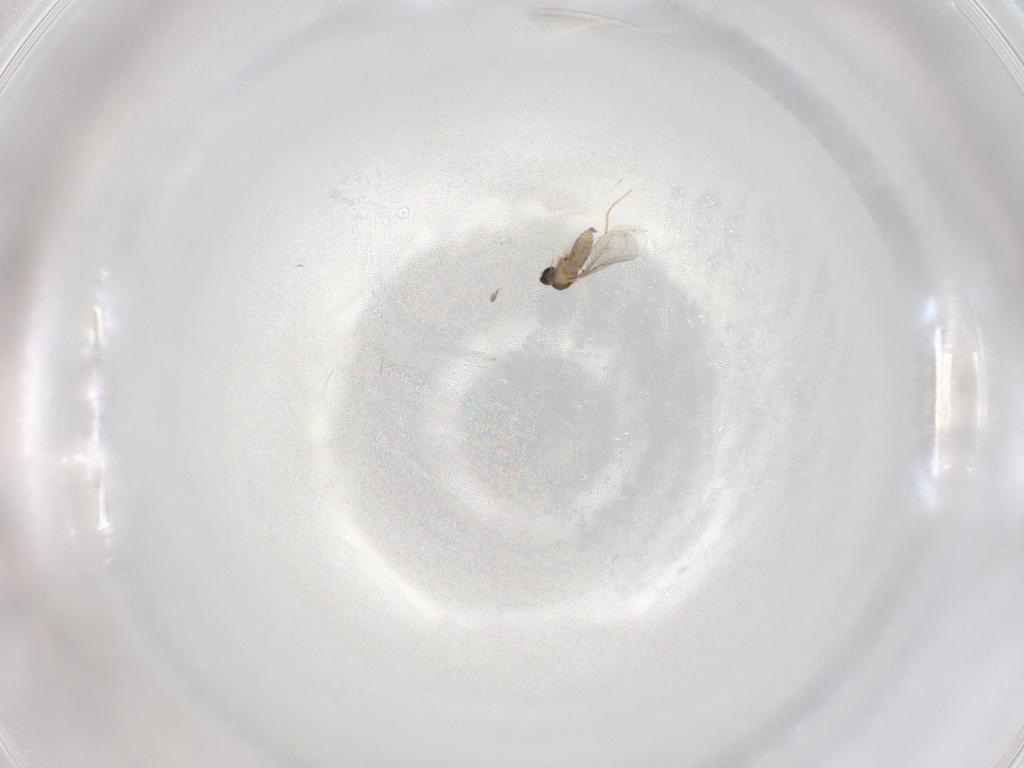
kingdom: Animalia
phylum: Arthropoda
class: Insecta
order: Diptera
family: Cecidomyiidae
